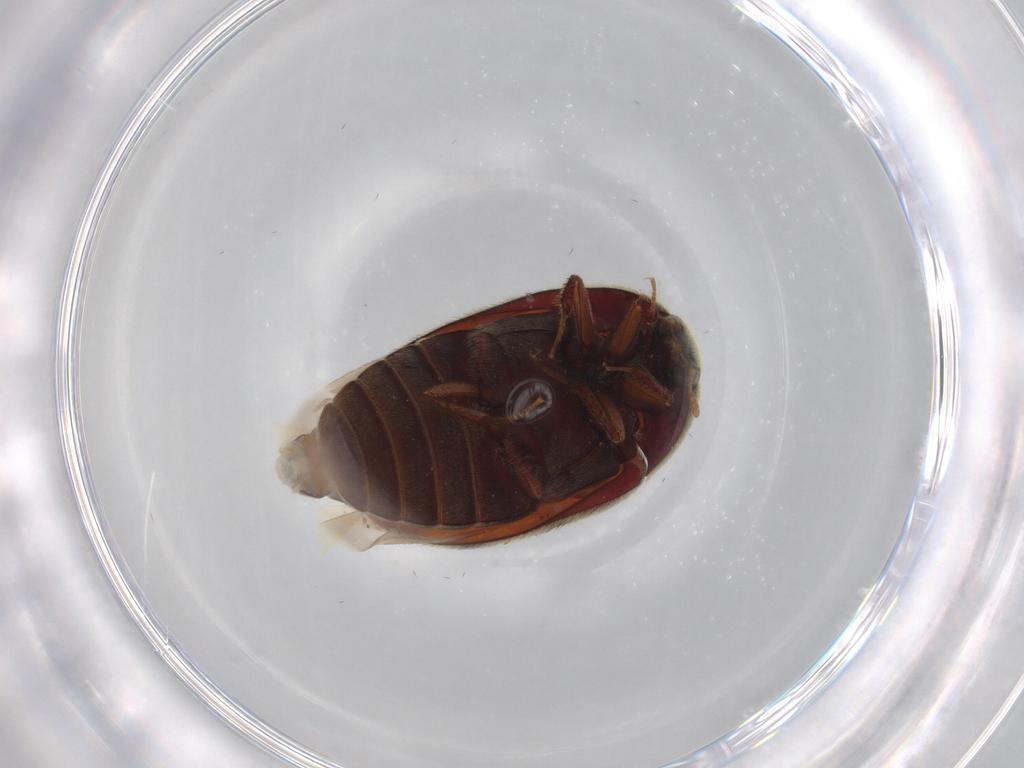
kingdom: Animalia
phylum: Arthropoda
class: Insecta
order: Coleoptera
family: Dermestidae
